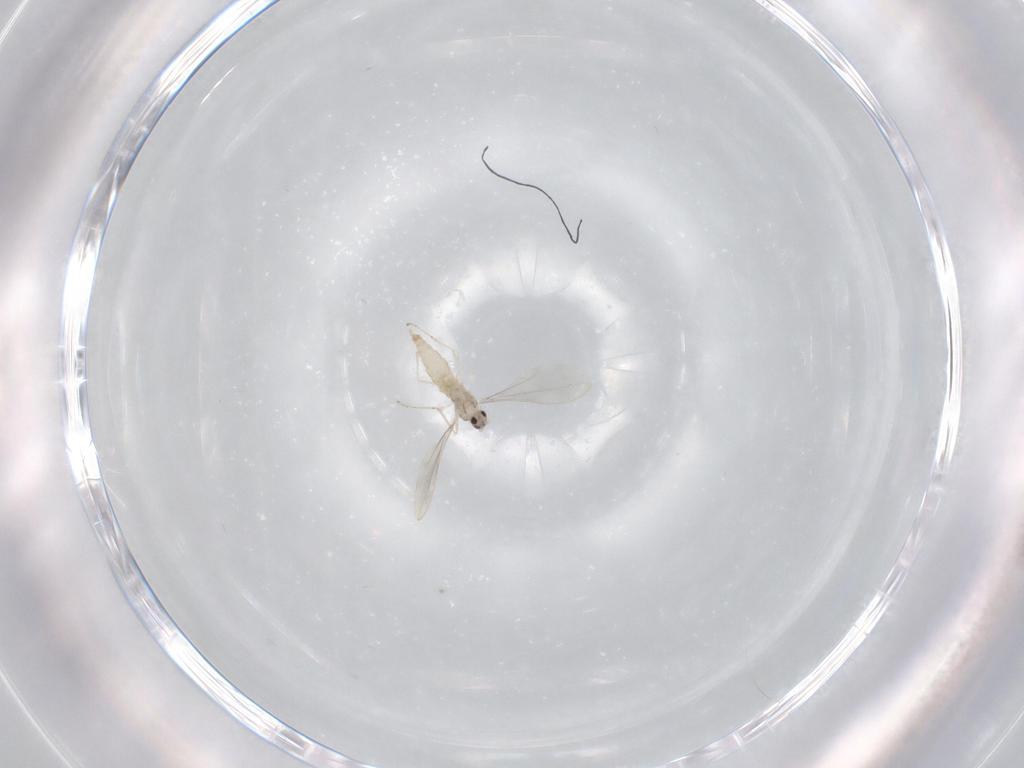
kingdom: Animalia
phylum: Arthropoda
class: Insecta
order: Diptera
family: Cecidomyiidae
